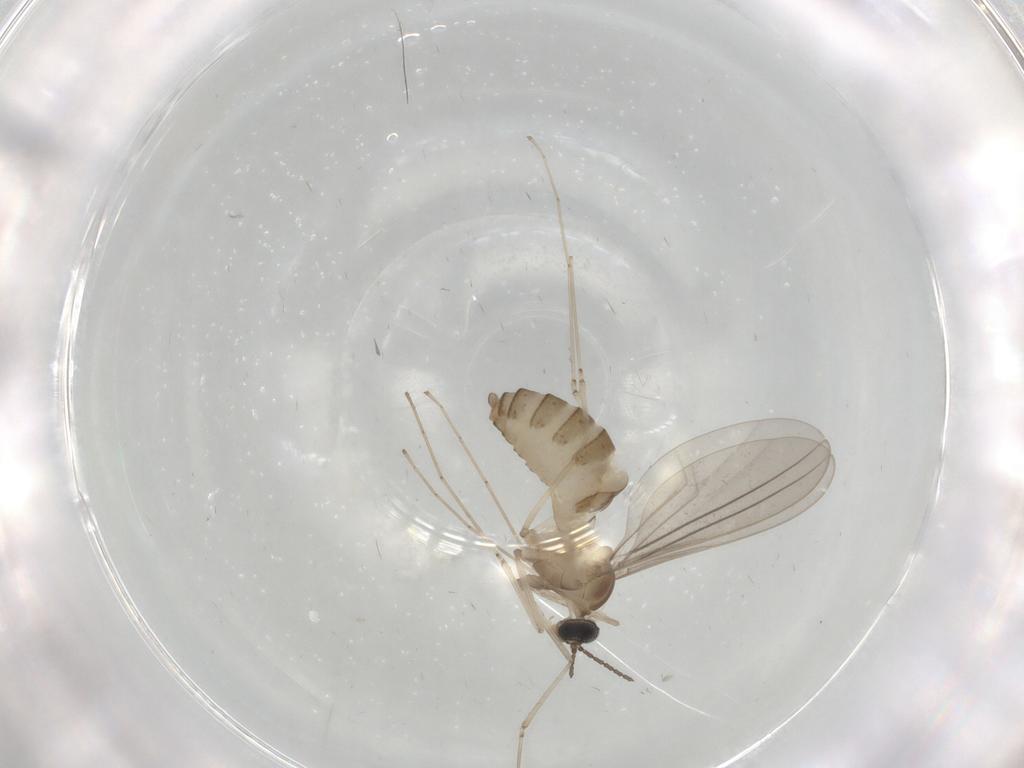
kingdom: Animalia
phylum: Arthropoda
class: Insecta
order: Diptera
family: Cecidomyiidae
